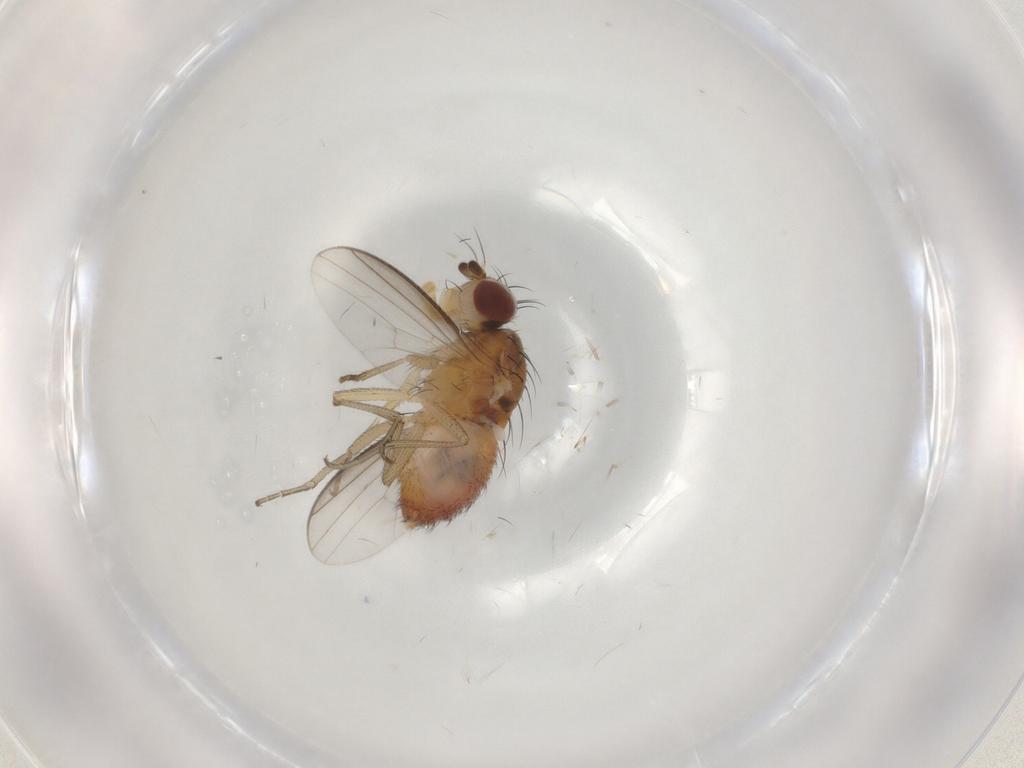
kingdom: Animalia
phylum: Arthropoda
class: Insecta
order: Diptera
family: Heleomyzidae
